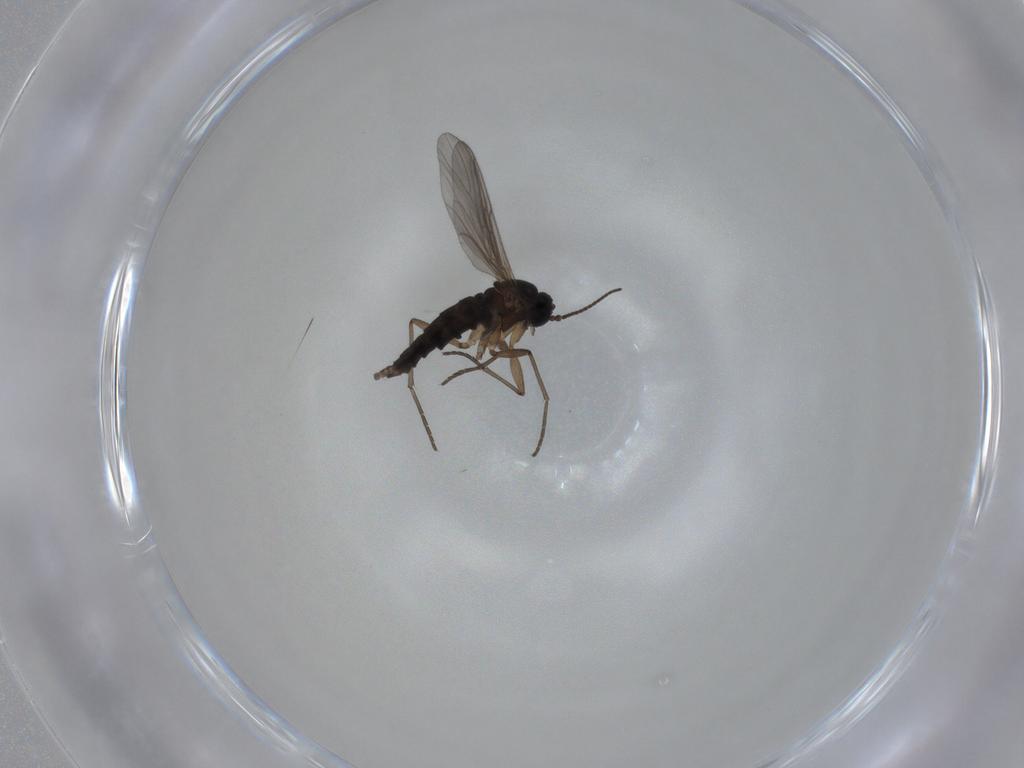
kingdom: Animalia
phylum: Arthropoda
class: Insecta
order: Diptera
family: Sciaridae
